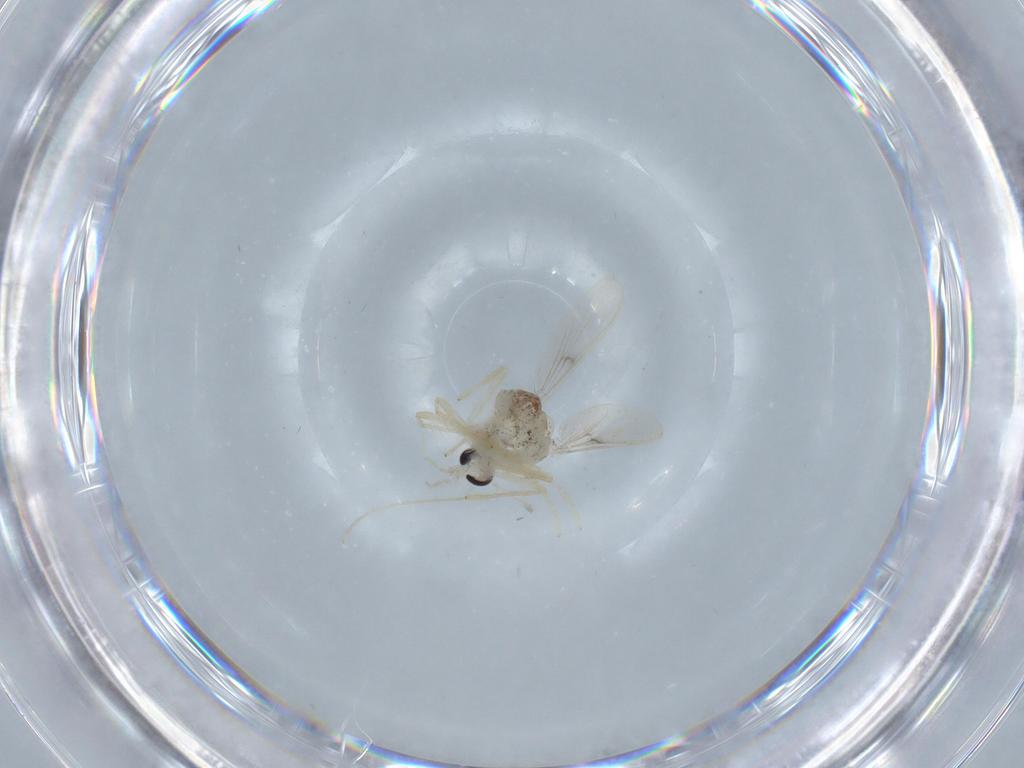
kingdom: Animalia
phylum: Arthropoda
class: Insecta
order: Diptera
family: Chironomidae
